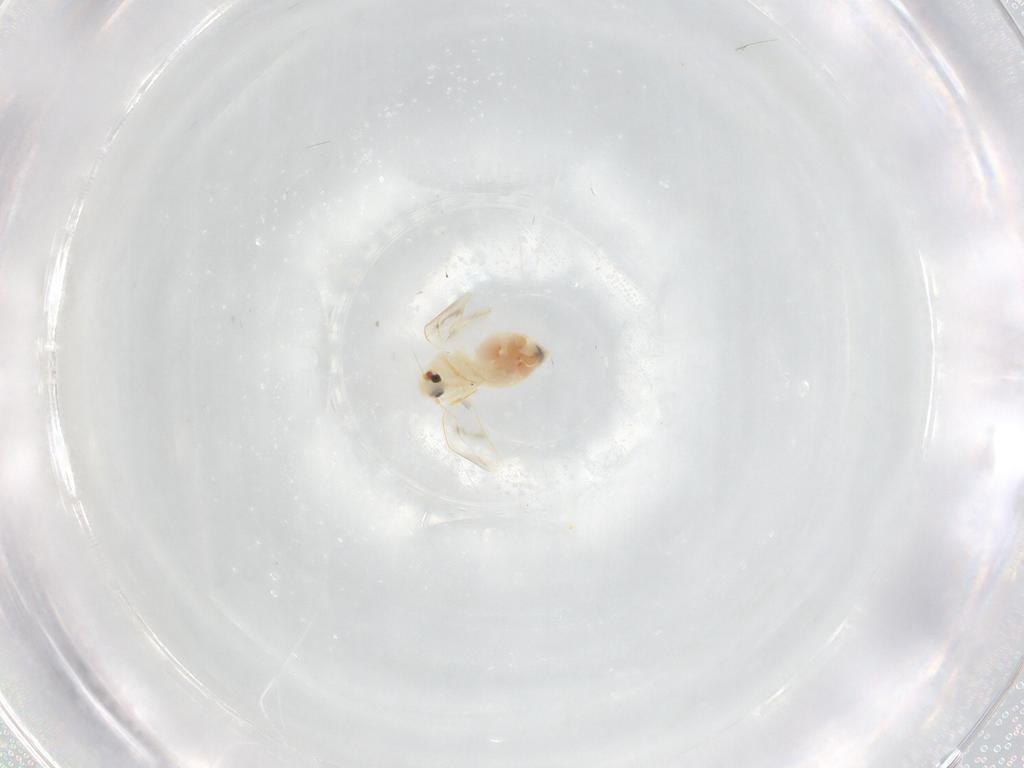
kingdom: Animalia
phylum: Arthropoda
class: Insecta
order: Hemiptera
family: Aleyrodidae
